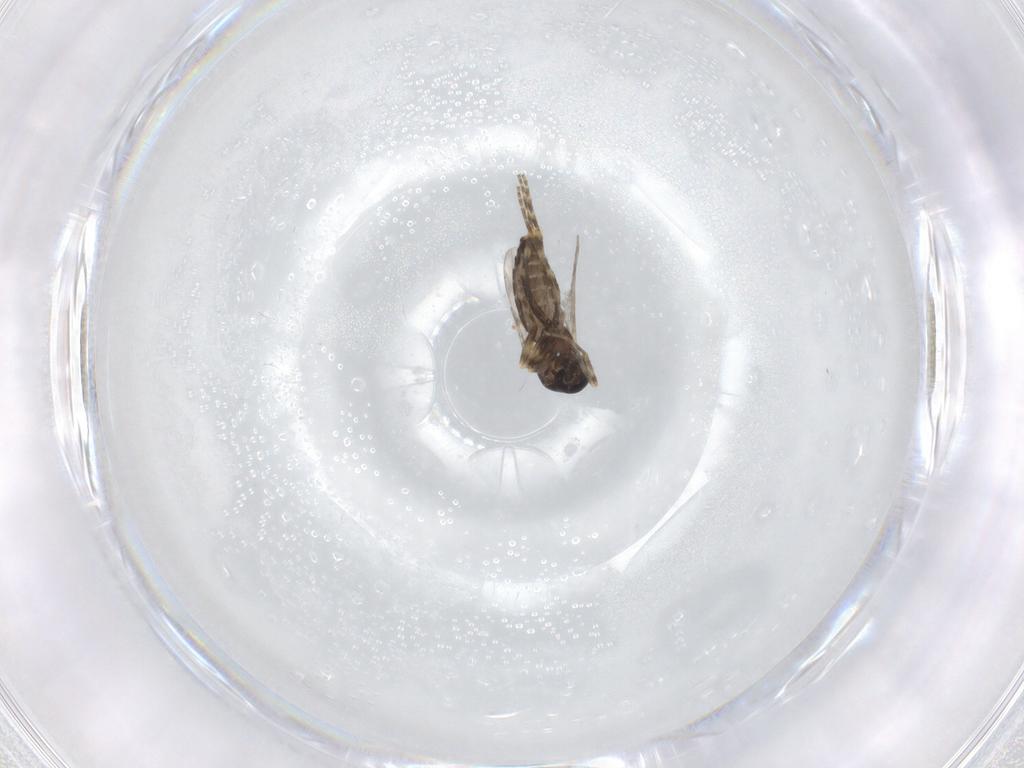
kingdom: Animalia
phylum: Arthropoda
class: Insecta
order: Diptera
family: Ceratopogonidae
